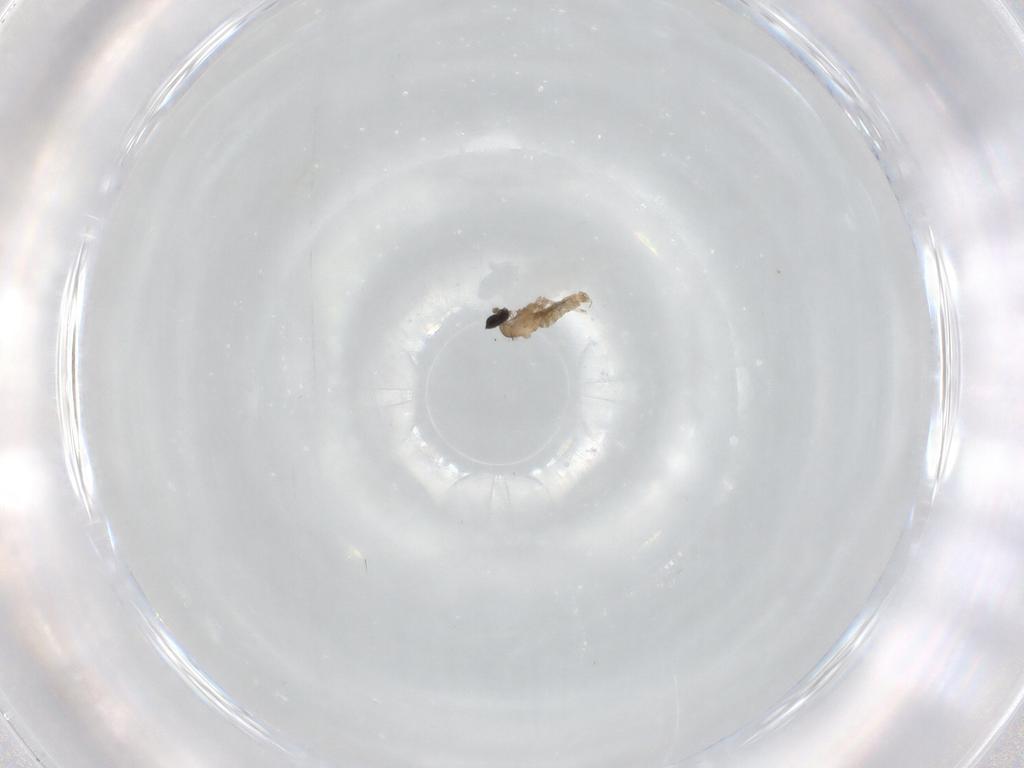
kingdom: Animalia
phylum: Arthropoda
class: Insecta
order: Diptera
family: Cecidomyiidae
